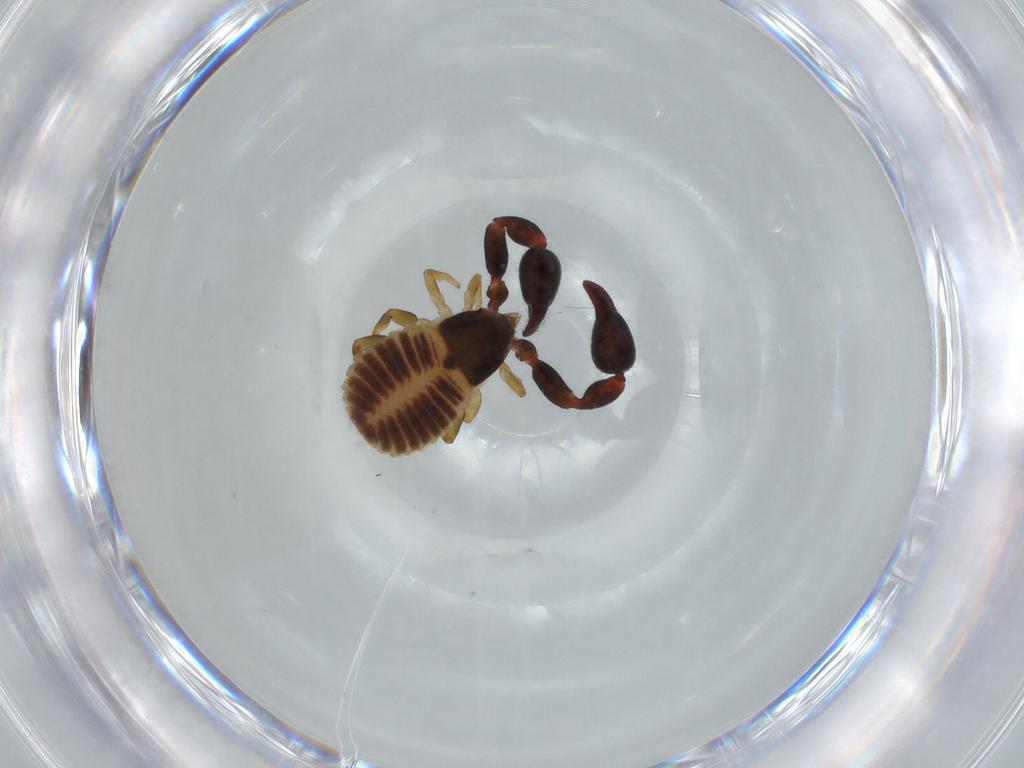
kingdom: Animalia
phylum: Arthropoda
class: Arachnida
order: Pseudoscorpiones
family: Chernetidae
